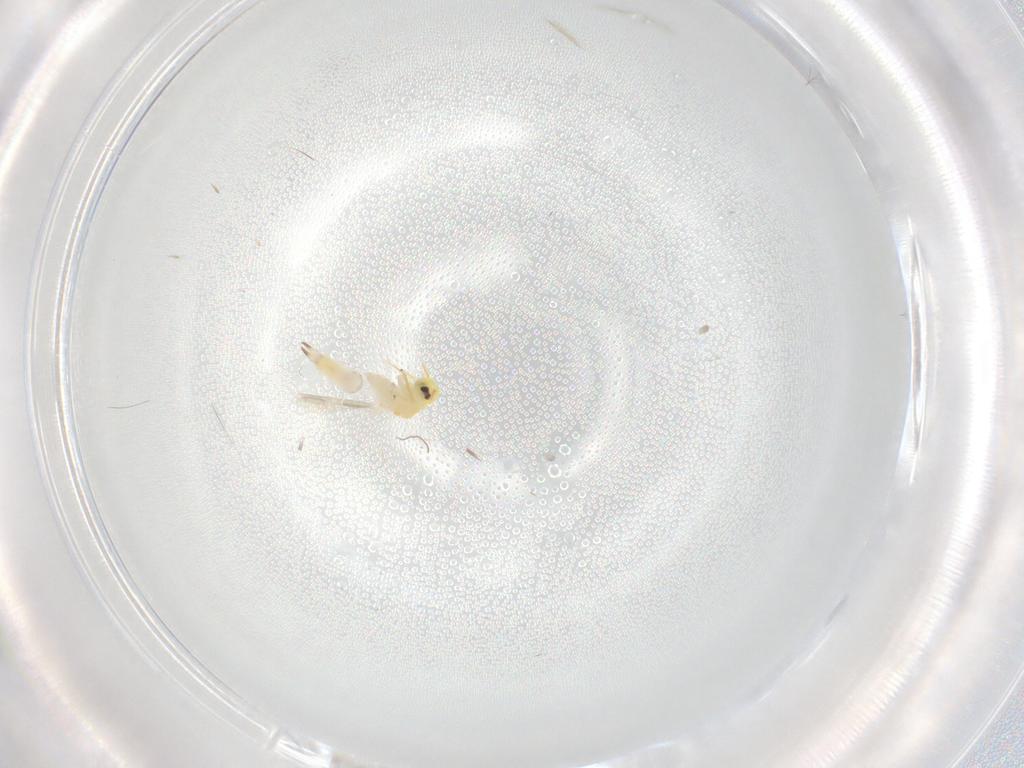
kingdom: Animalia
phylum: Arthropoda
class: Insecta
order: Hemiptera
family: Aleyrodidae
